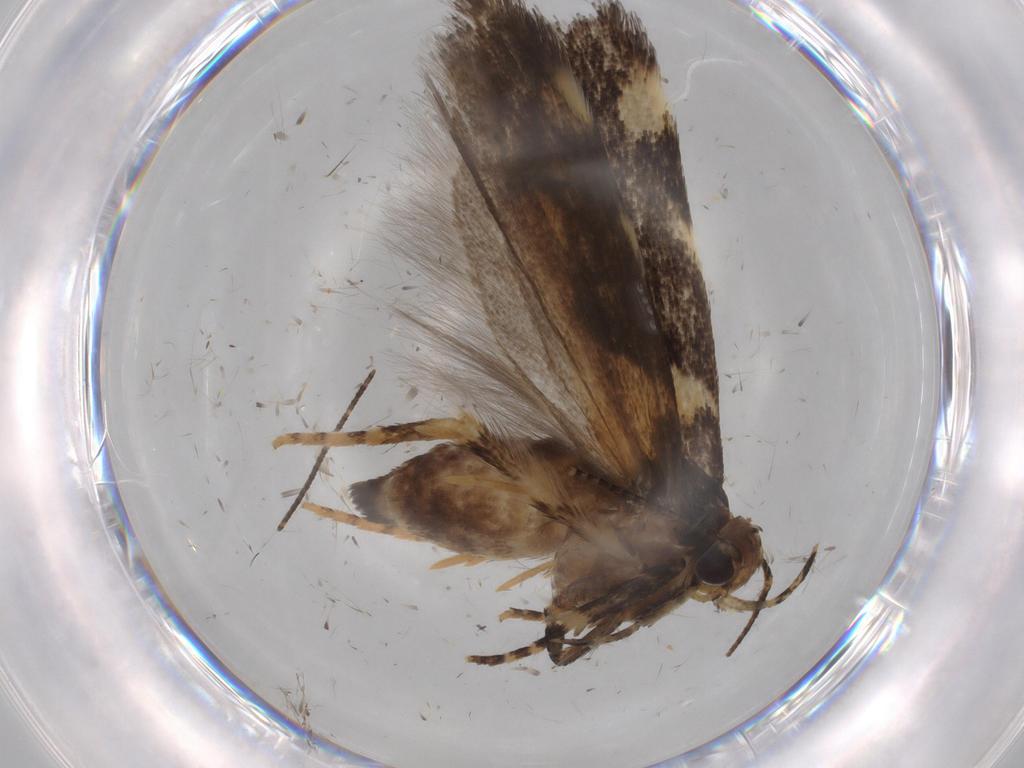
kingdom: Animalia
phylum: Arthropoda
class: Insecta
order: Lepidoptera
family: Gelechiidae
